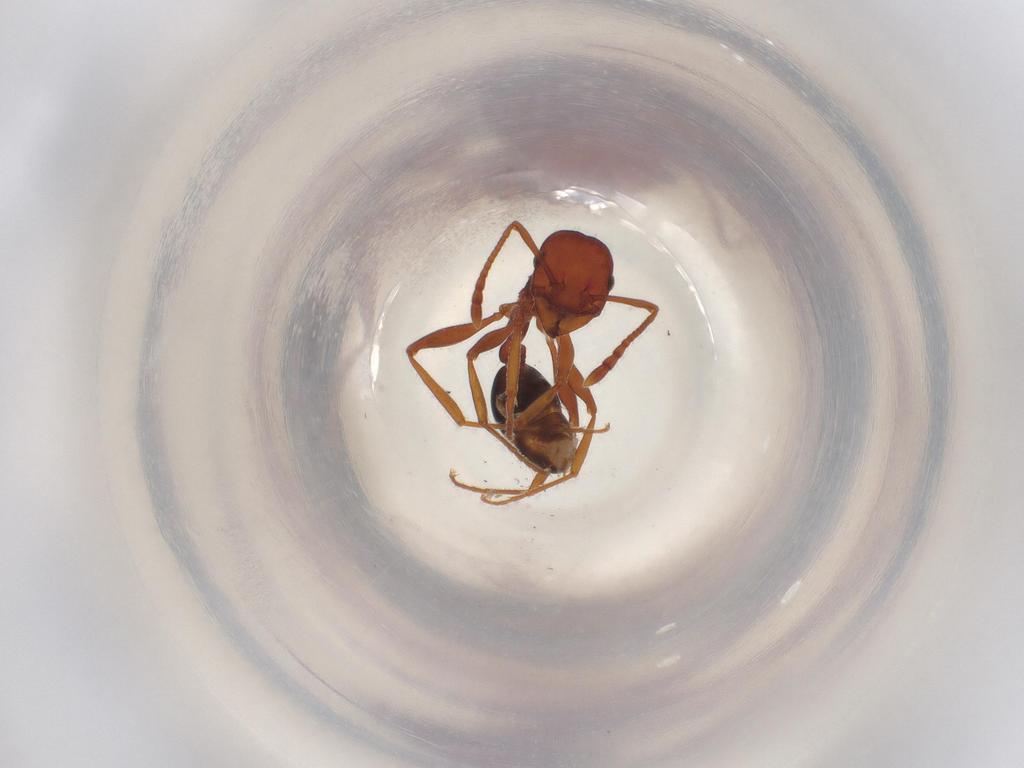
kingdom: Animalia
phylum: Arthropoda
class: Insecta
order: Hymenoptera
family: Formicidae
